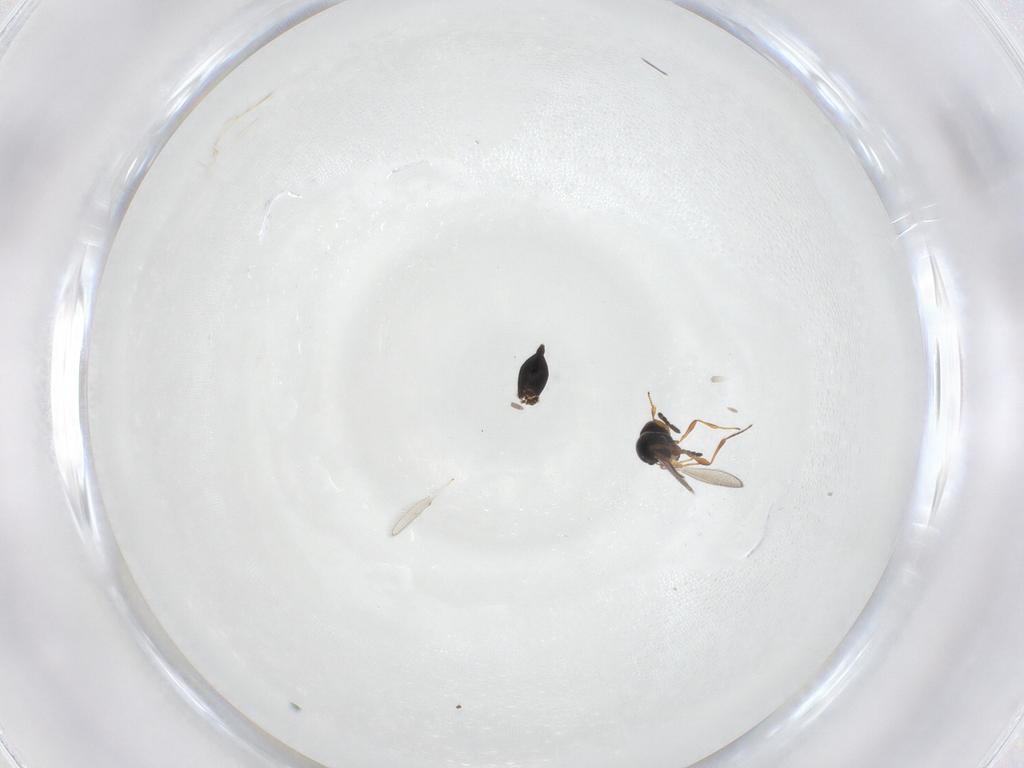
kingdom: Animalia
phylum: Arthropoda
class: Insecta
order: Hymenoptera
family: Platygastridae
